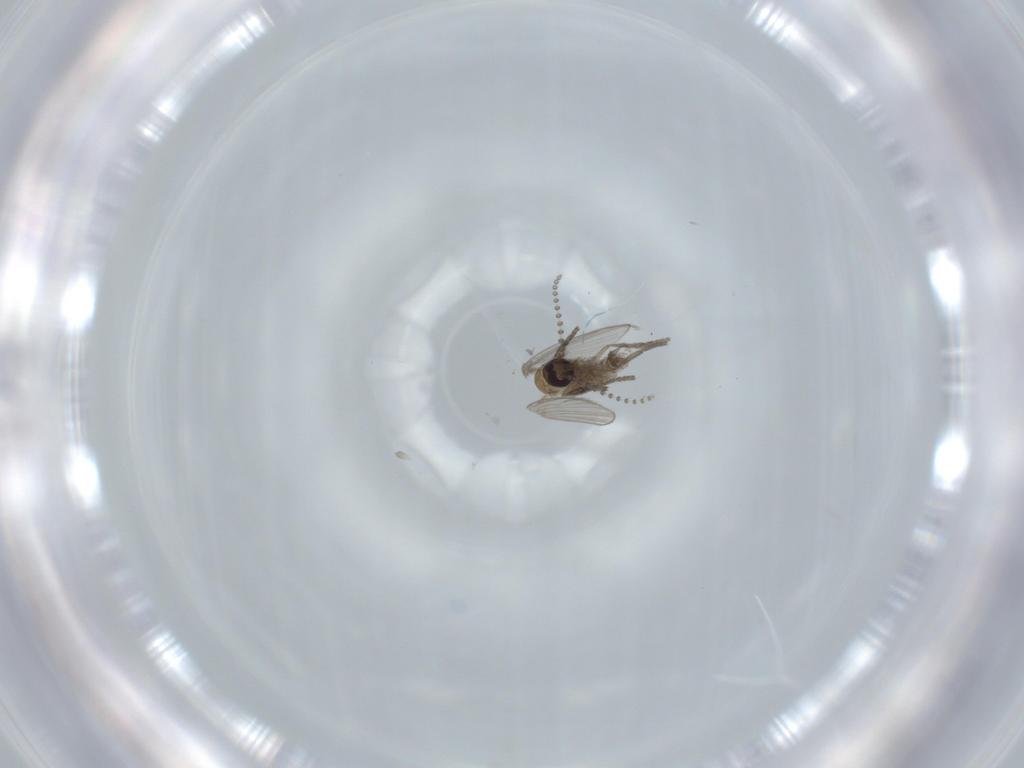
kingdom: Animalia
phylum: Arthropoda
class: Insecta
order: Diptera
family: Psychodidae
